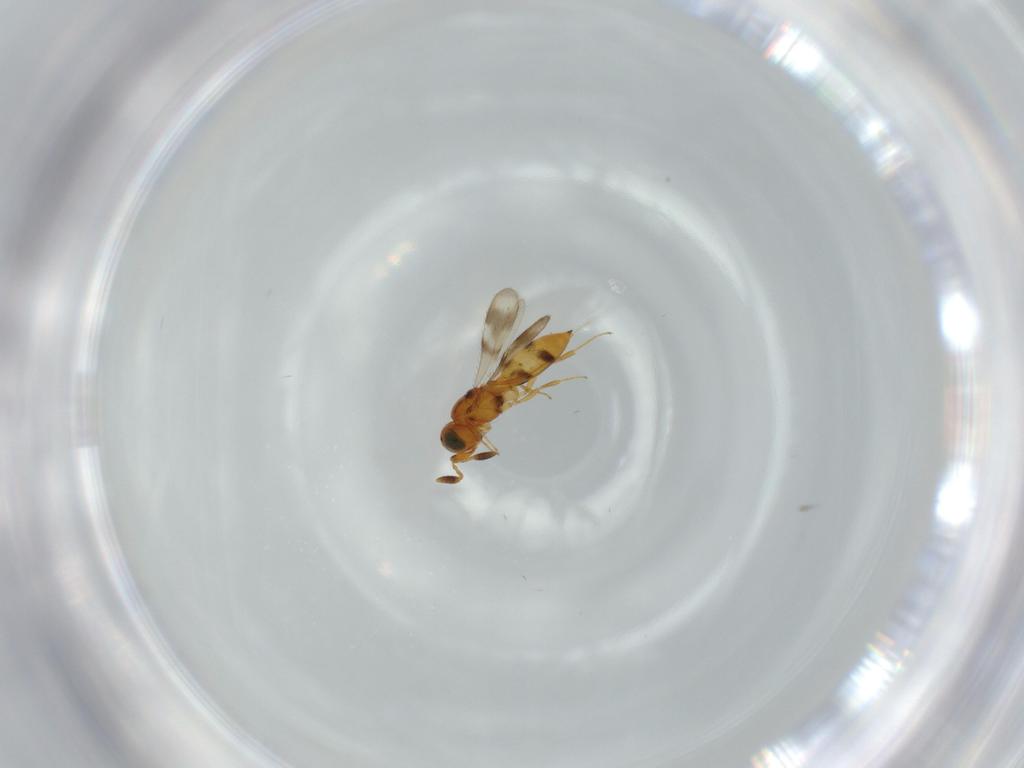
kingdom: Animalia
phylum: Arthropoda
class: Insecta
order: Hymenoptera
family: Scelionidae
